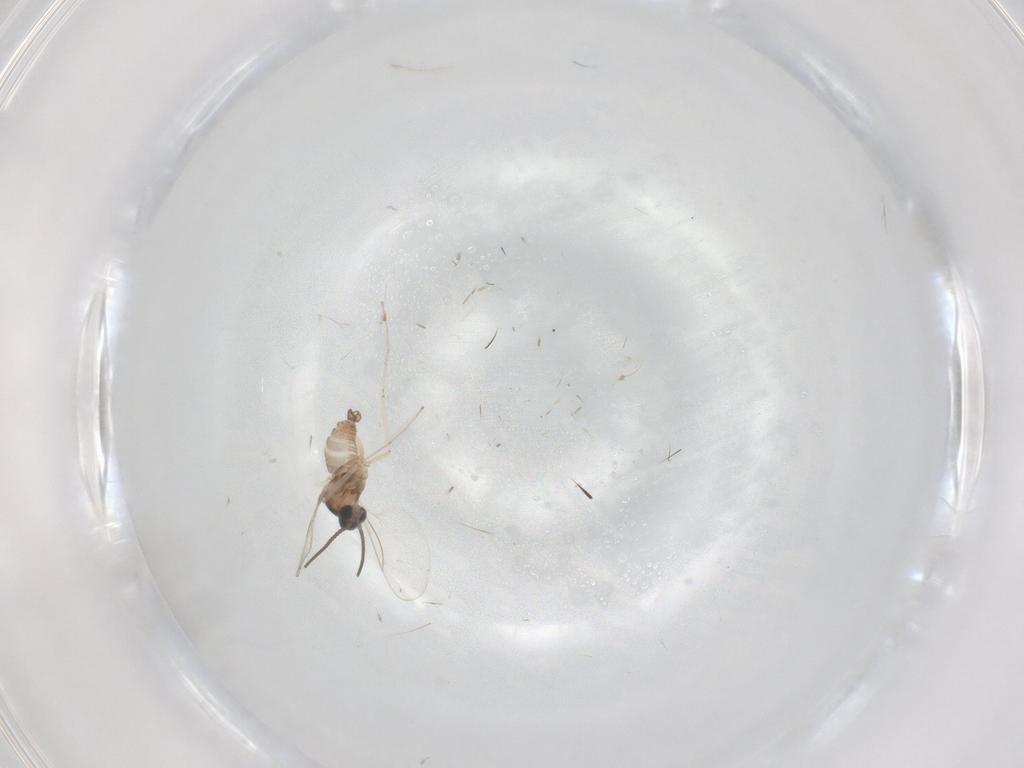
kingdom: Animalia
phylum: Arthropoda
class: Insecta
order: Diptera
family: Cecidomyiidae
